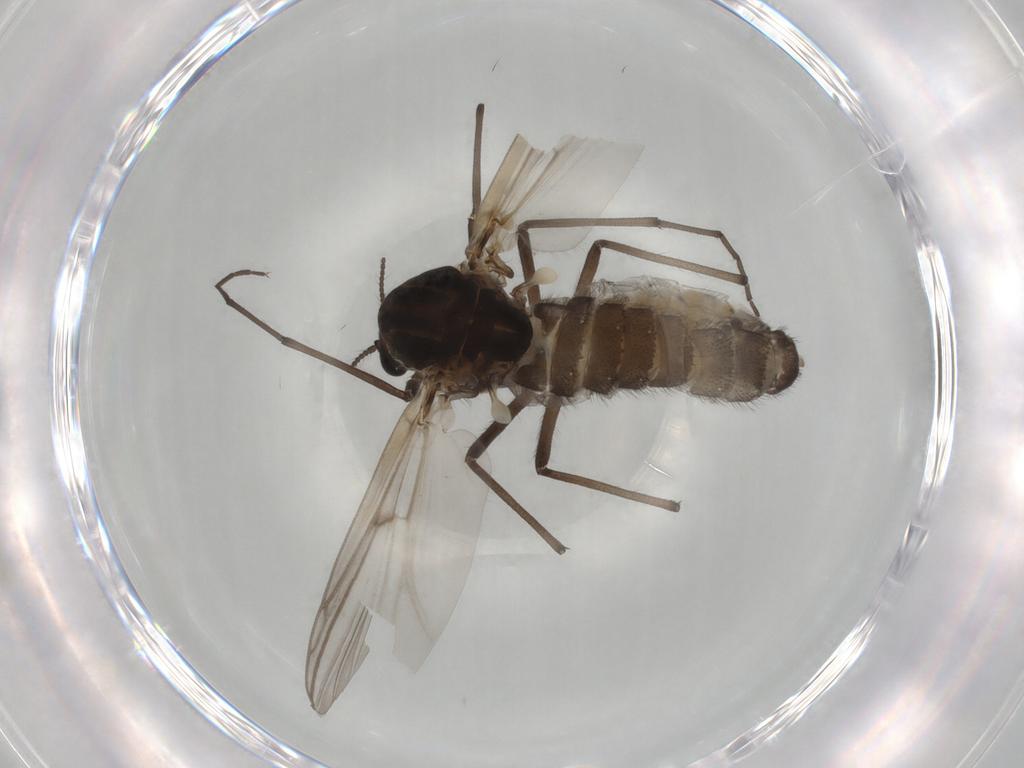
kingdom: Animalia
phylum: Arthropoda
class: Insecta
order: Diptera
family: Chironomidae
